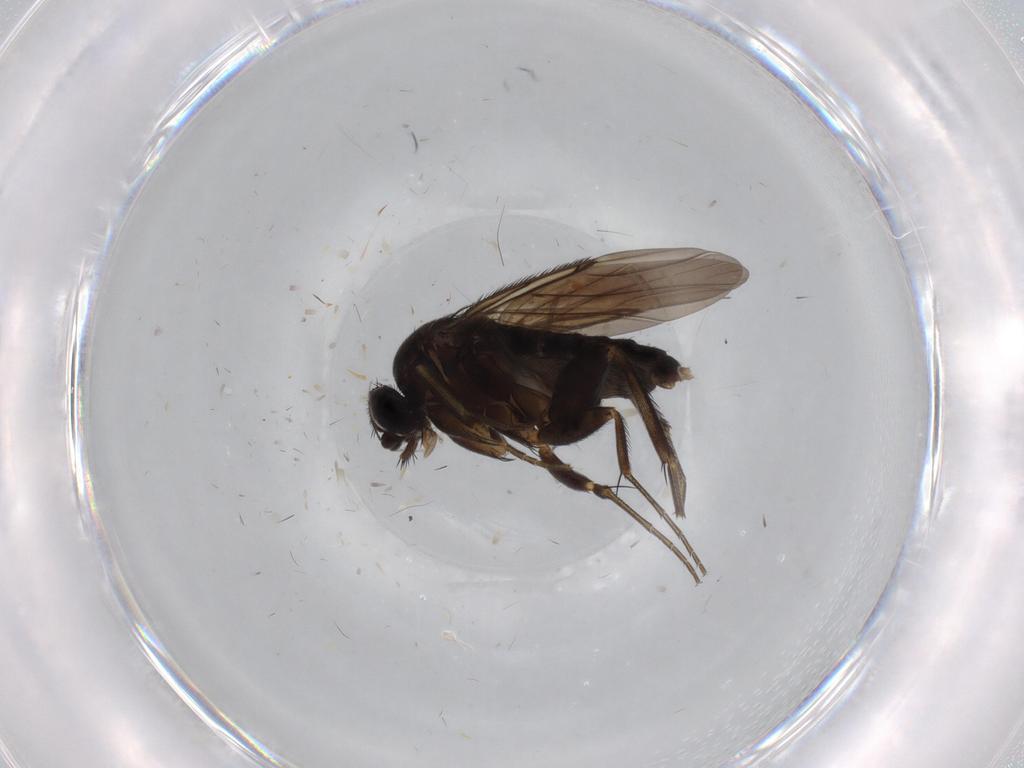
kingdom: Animalia
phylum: Arthropoda
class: Insecta
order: Diptera
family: Phoridae
